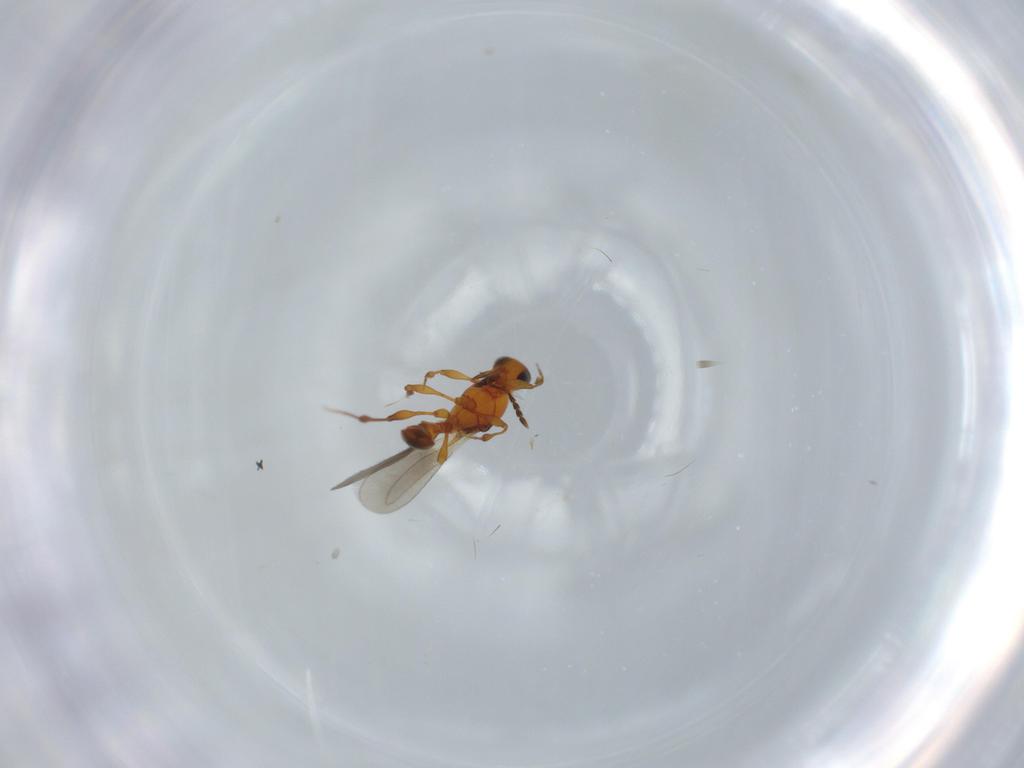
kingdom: Animalia
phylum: Arthropoda
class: Insecta
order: Hymenoptera
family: Platygastridae
